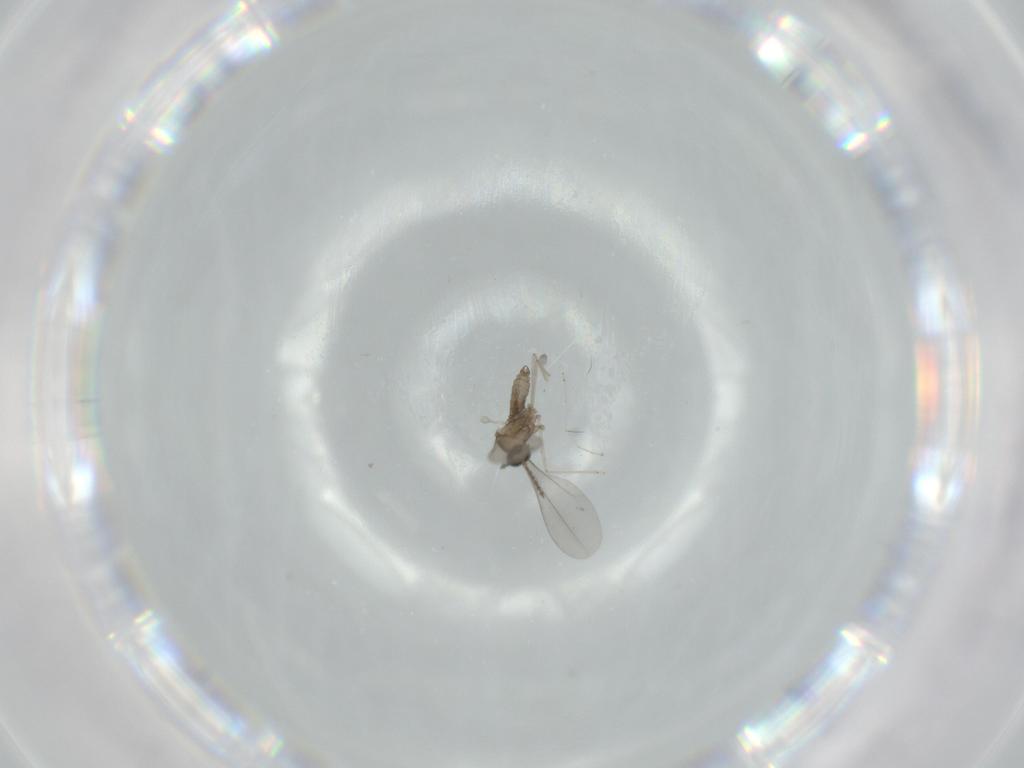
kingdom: Animalia
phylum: Arthropoda
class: Insecta
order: Diptera
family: Cecidomyiidae
